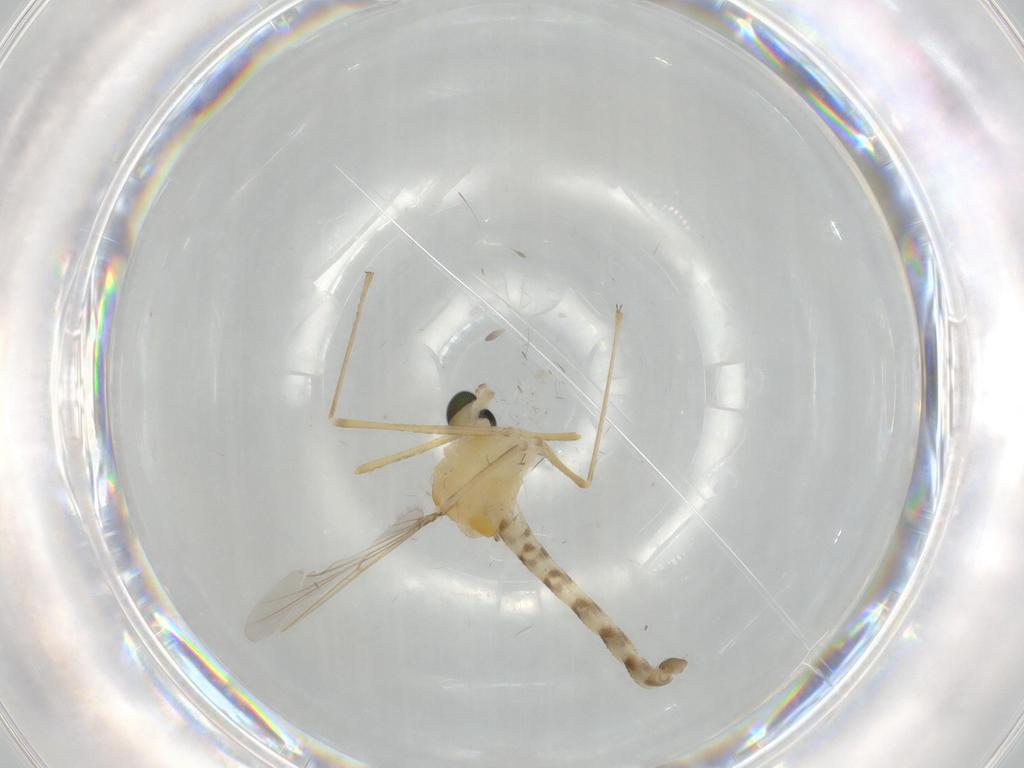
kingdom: Animalia
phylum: Arthropoda
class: Insecta
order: Diptera
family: Chironomidae
